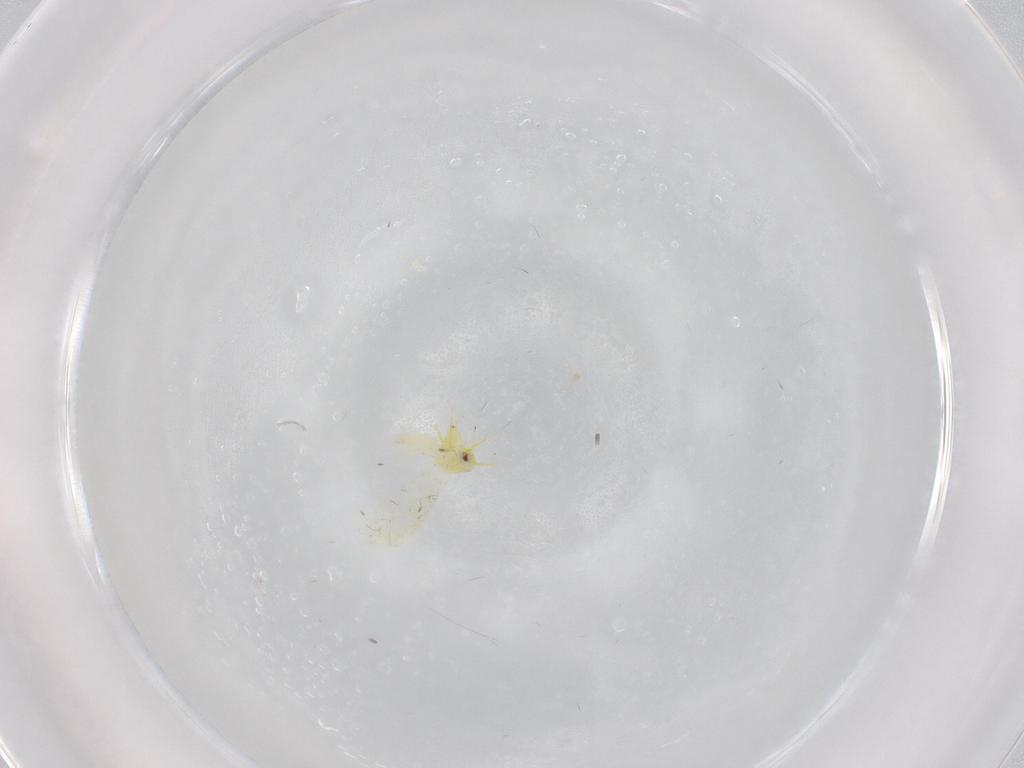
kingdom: Animalia
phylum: Arthropoda
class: Insecta
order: Hemiptera
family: Aleyrodidae
